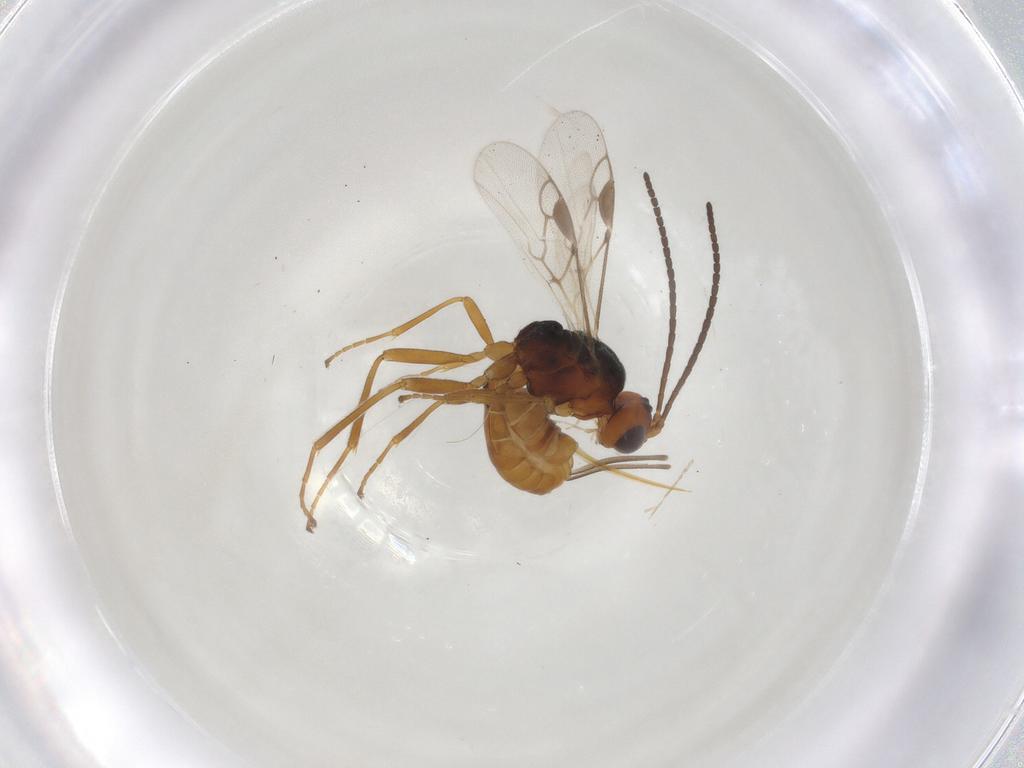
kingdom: Animalia
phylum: Arthropoda
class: Insecta
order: Hymenoptera
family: Braconidae
